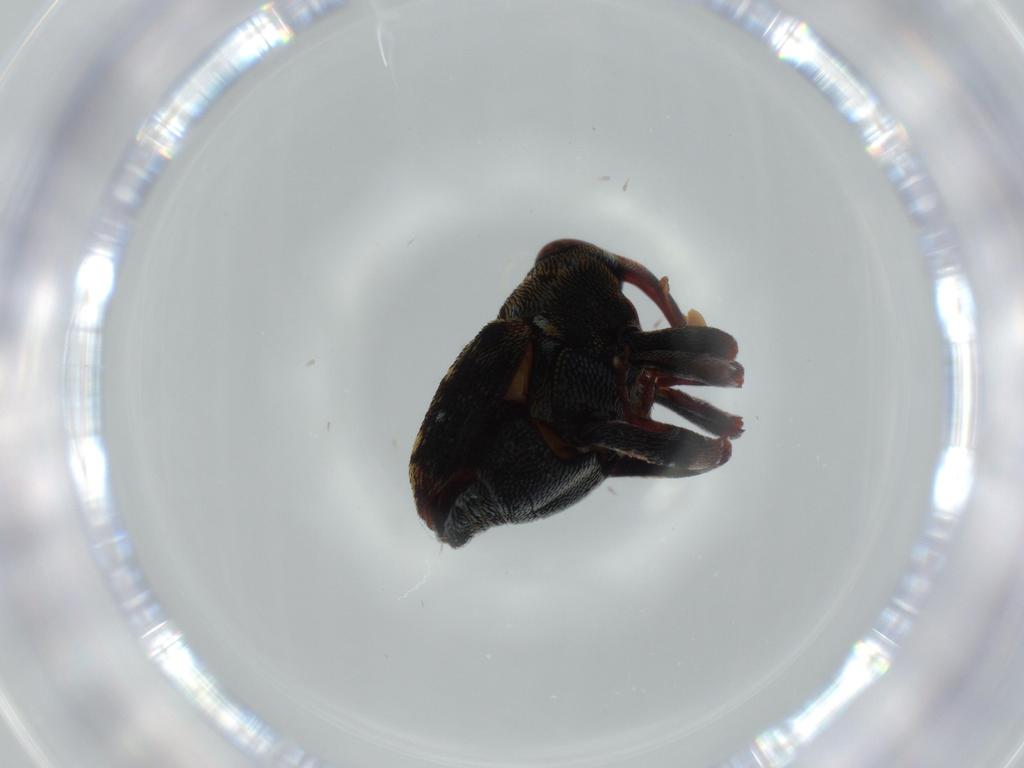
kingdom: Animalia
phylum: Arthropoda
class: Insecta
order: Coleoptera
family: Curculionidae
